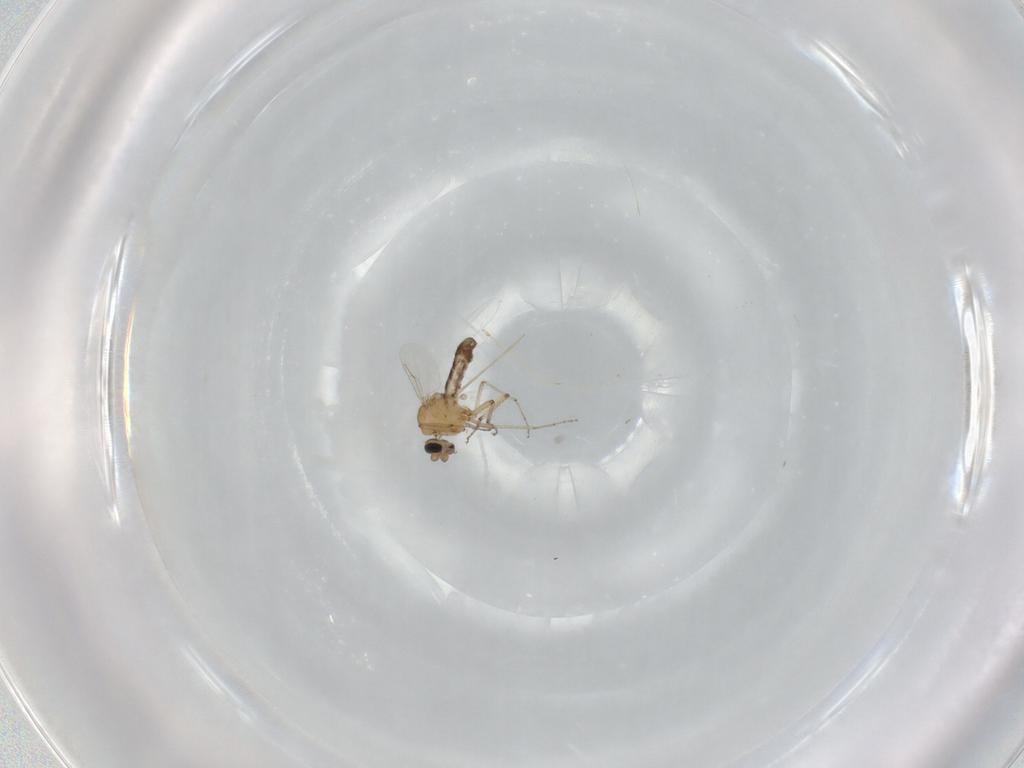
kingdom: Animalia
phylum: Arthropoda
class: Insecta
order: Diptera
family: Ceratopogonidae
